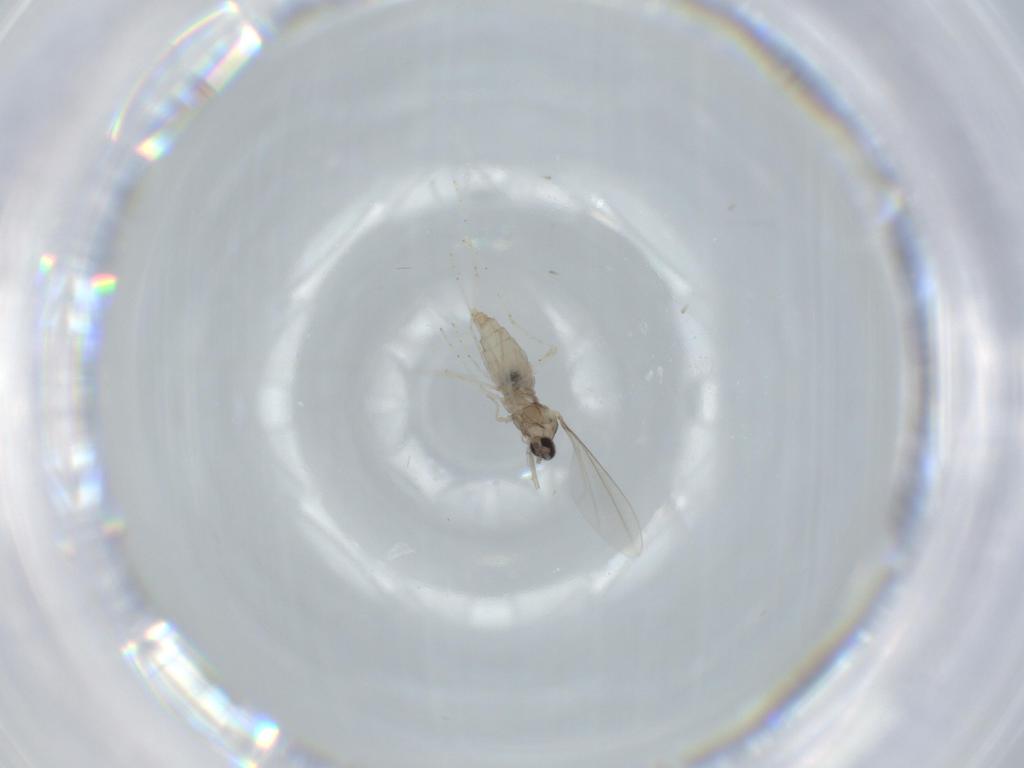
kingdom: Animalia
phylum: Arthropoda
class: Insecta
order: Diptera
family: Cecidomyiidae
